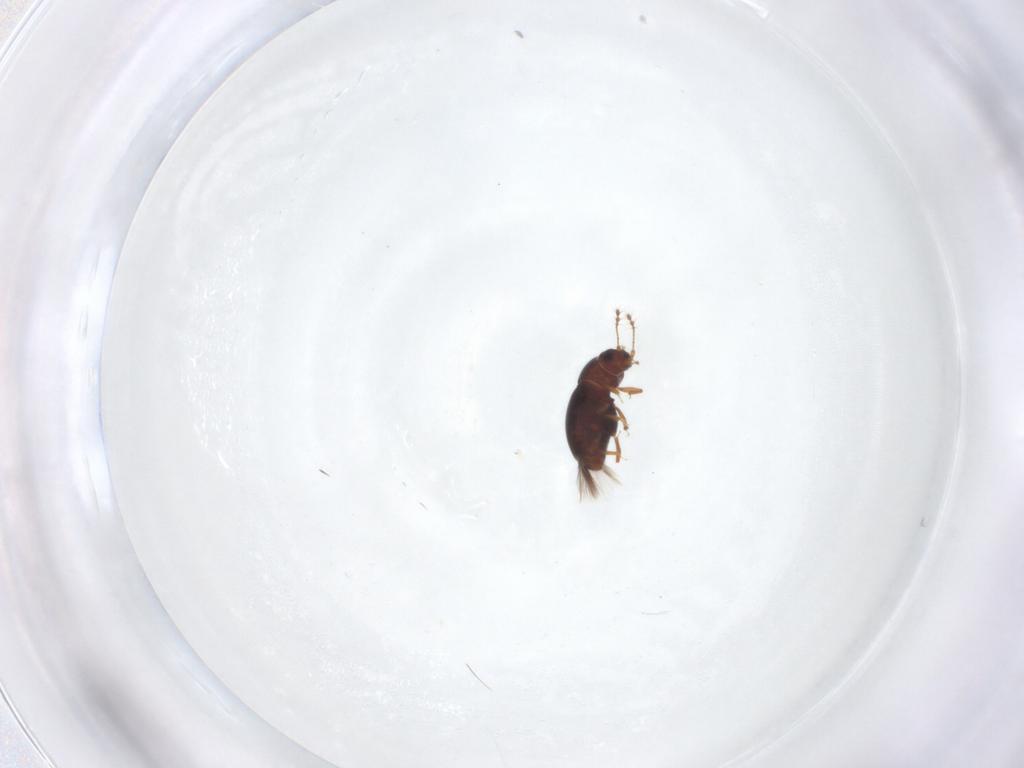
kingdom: Animalia
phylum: Arthropoda
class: Insecta
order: Coleoptera
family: Ptiliidae
